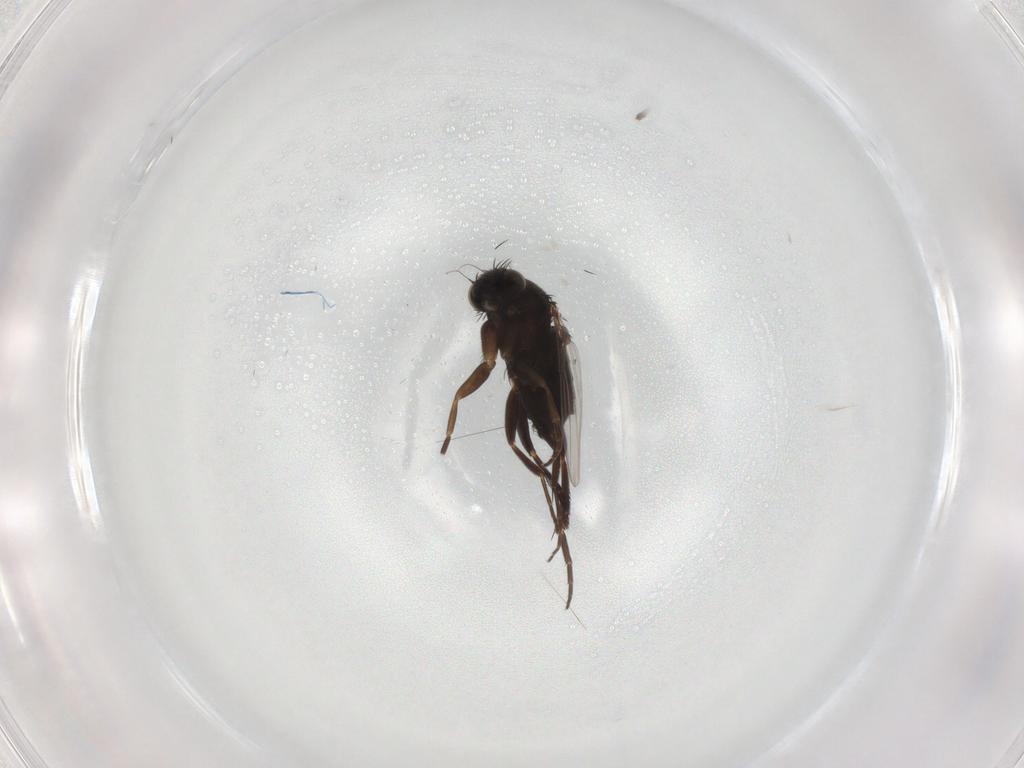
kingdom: Animalia
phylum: Arthropoda
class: Insecta
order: Diptera
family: Phoridae
